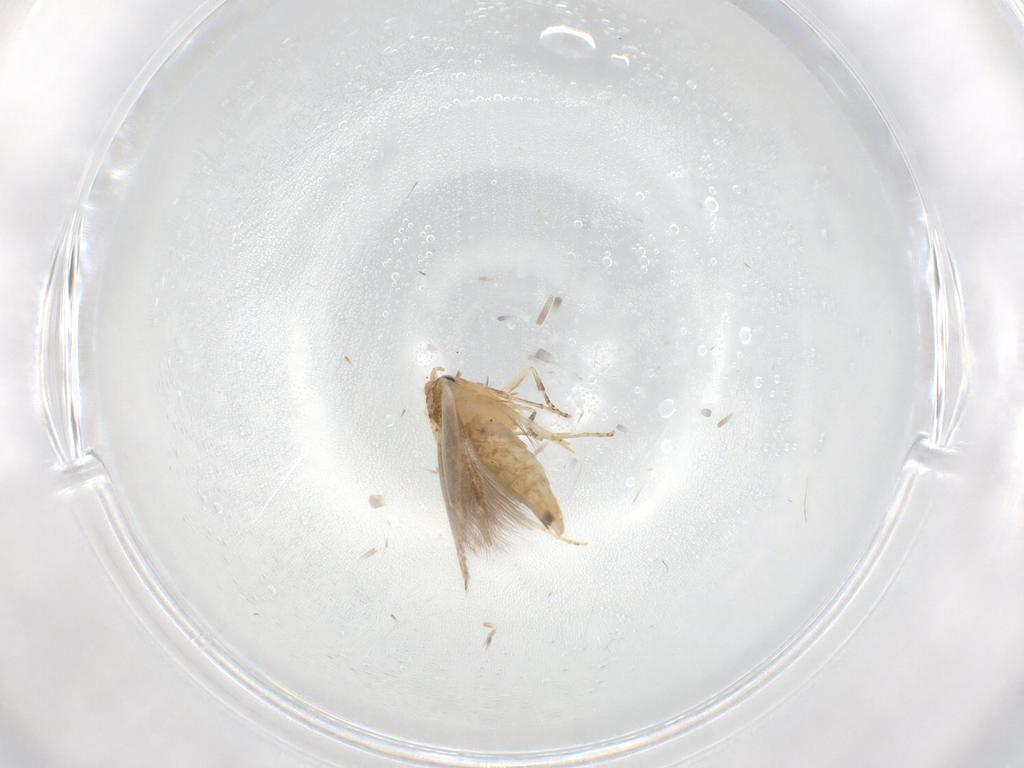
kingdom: Animalia
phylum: Arthropoda
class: Insecta
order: Lepidoptera
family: Bucculatricidae
